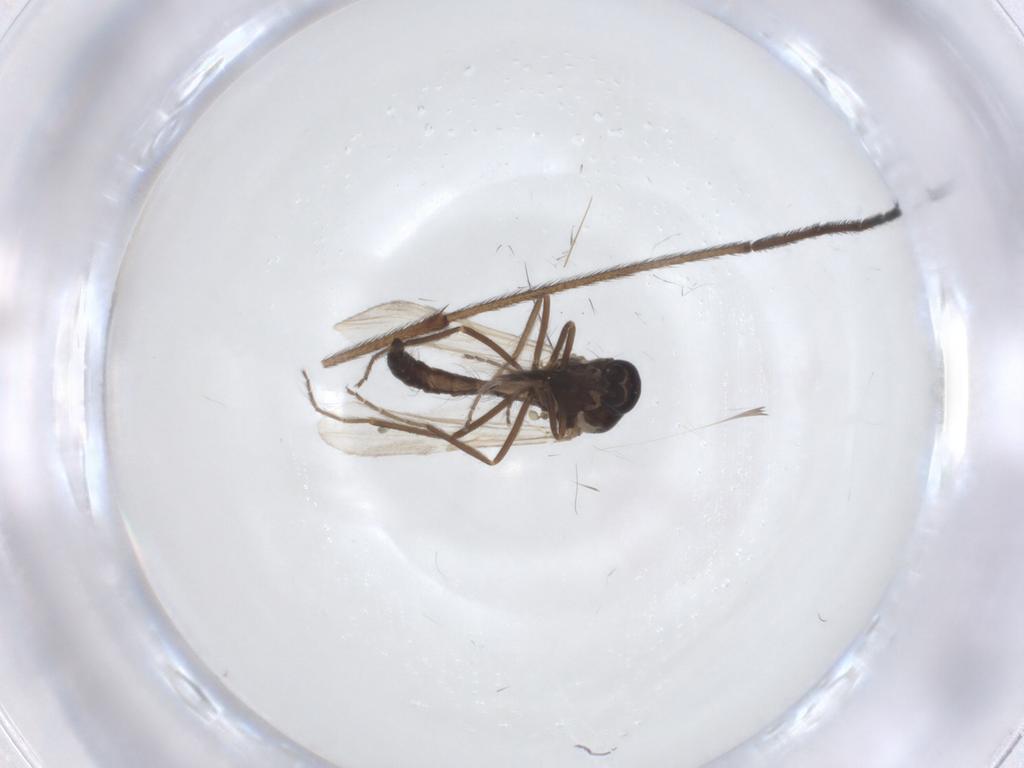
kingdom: Animalia
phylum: Arthropoda
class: Insecta
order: Diptera
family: Ceratopogonidae
